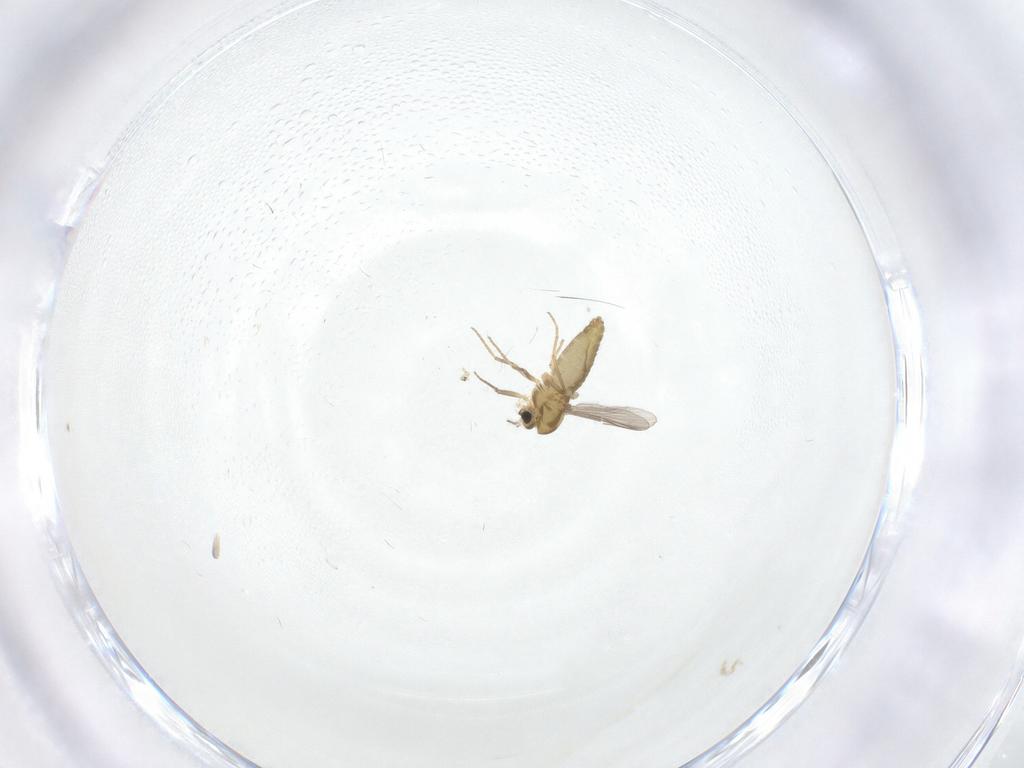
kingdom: Animalia
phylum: Arthropoda
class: Insecta
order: Diptera
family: Chironomidae
